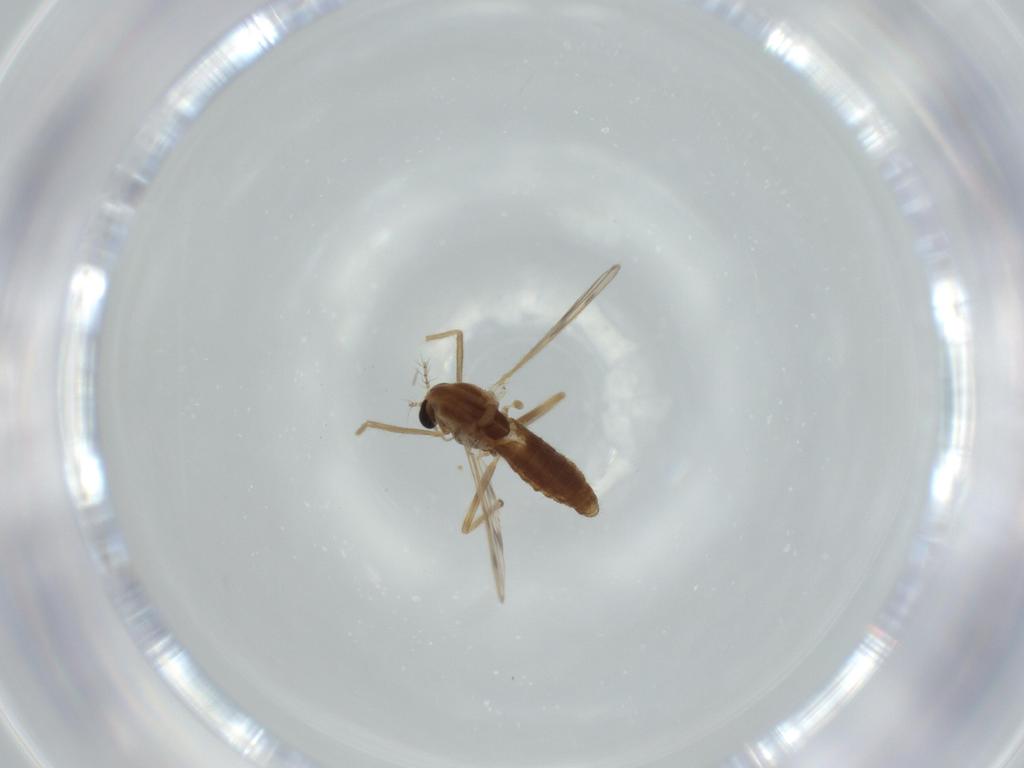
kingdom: Animalia
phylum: Arthropoda
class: Insecta
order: Diptera
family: Chironomidae
